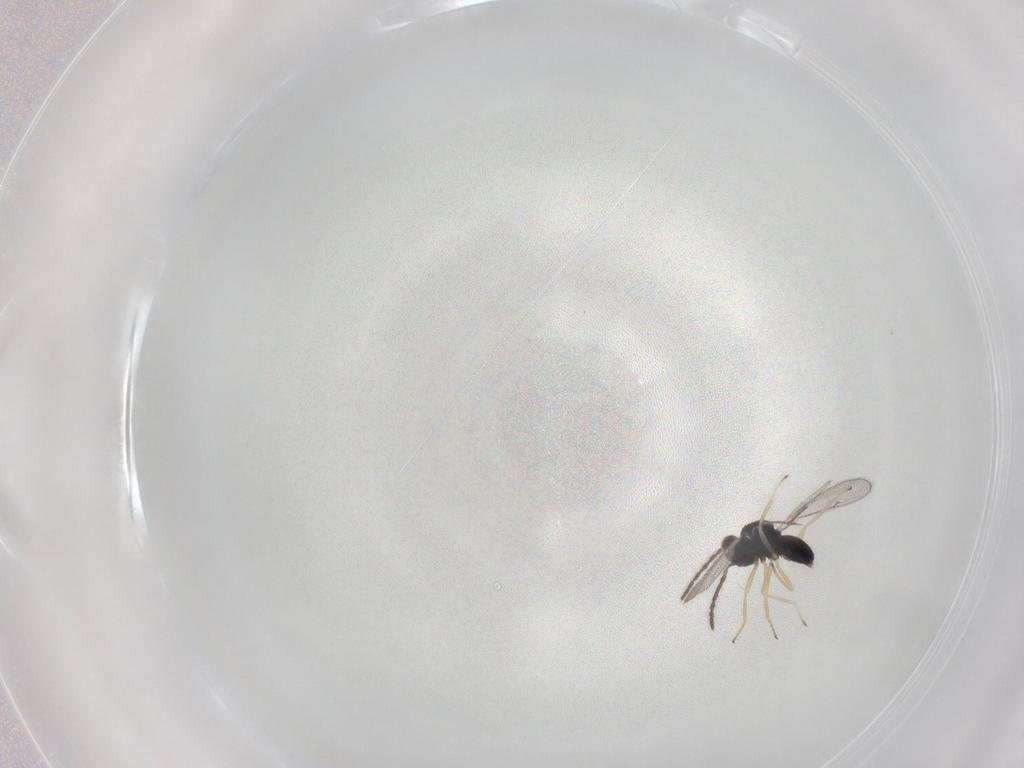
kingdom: Animalia
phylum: Arthropoda
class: Insecta
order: Hymenoptera
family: Eulophidae
